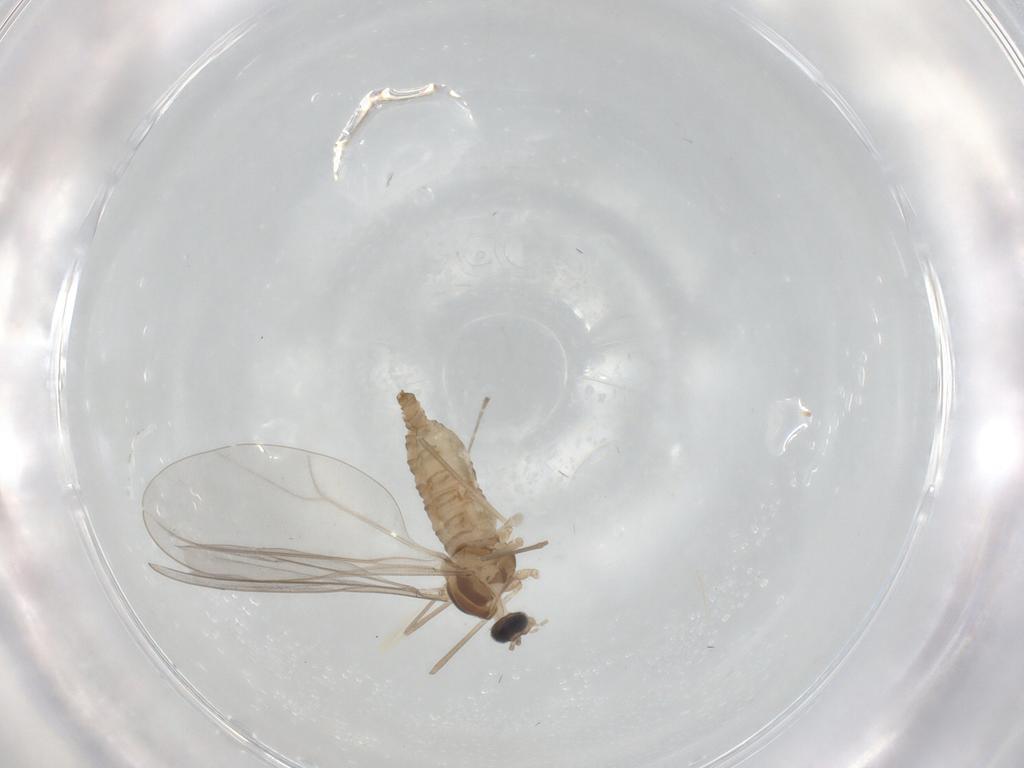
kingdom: Animalia
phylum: Arthropoda
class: Insecta
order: Diptera
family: Cecidomyiidae
